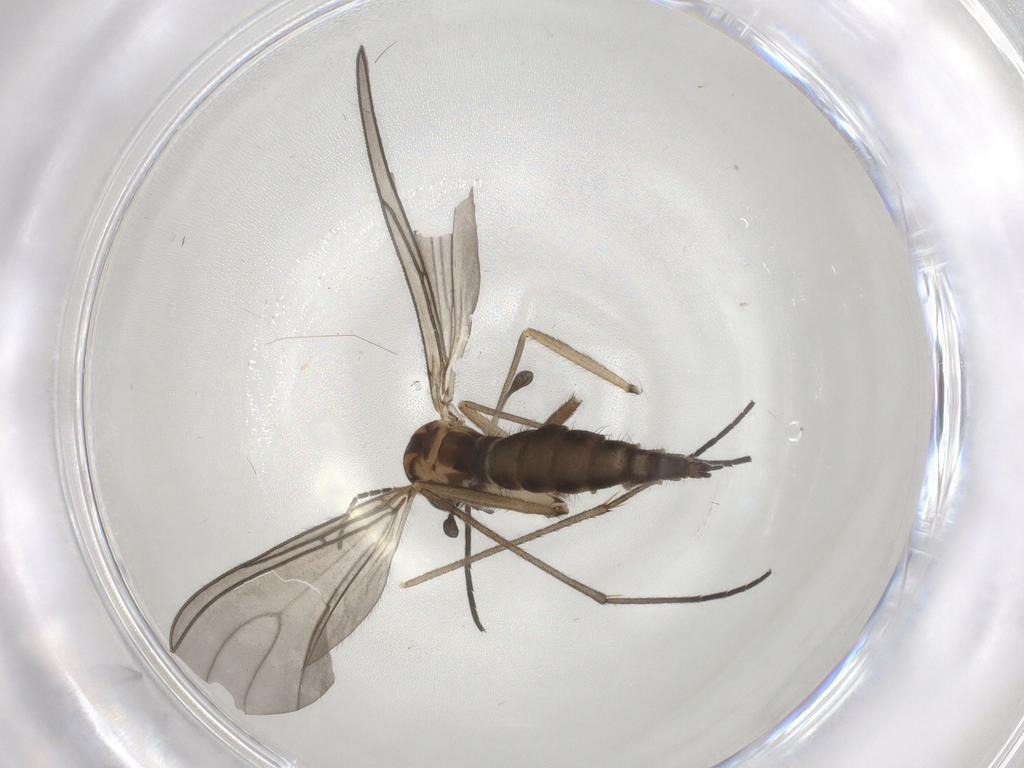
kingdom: Animalia
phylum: Arthropoda
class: Insecta
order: Diptera
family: Sciaridae
